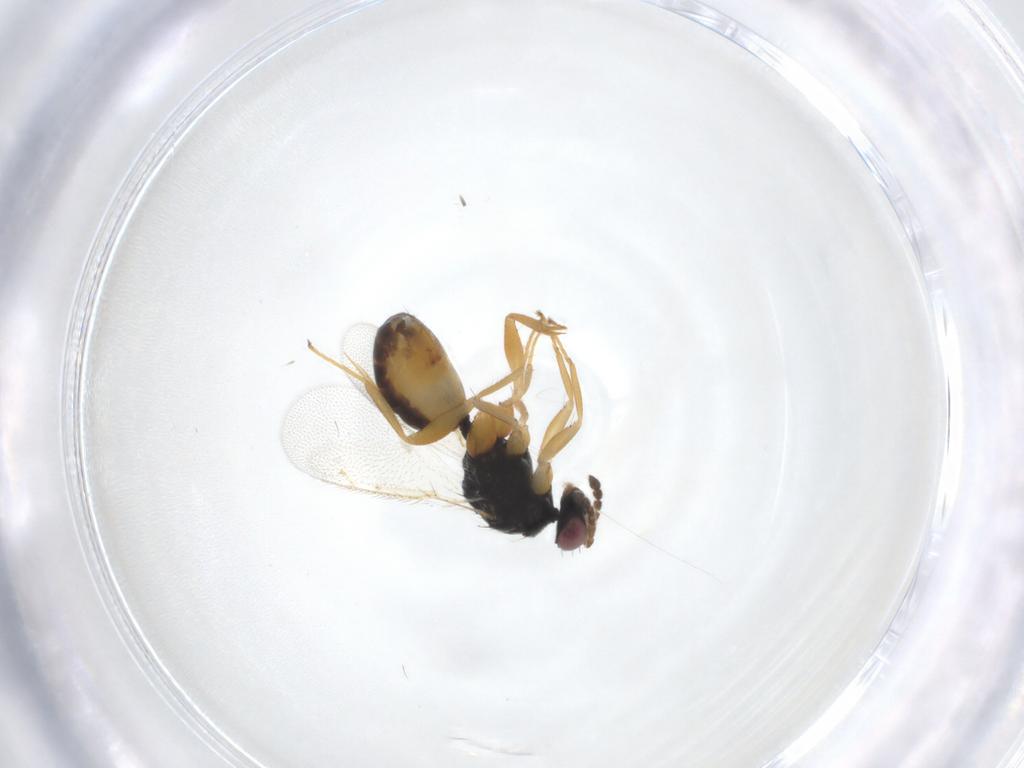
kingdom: Animalia
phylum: Arthropoda
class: Insecta
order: Hymenoptera
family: Eulophidae
